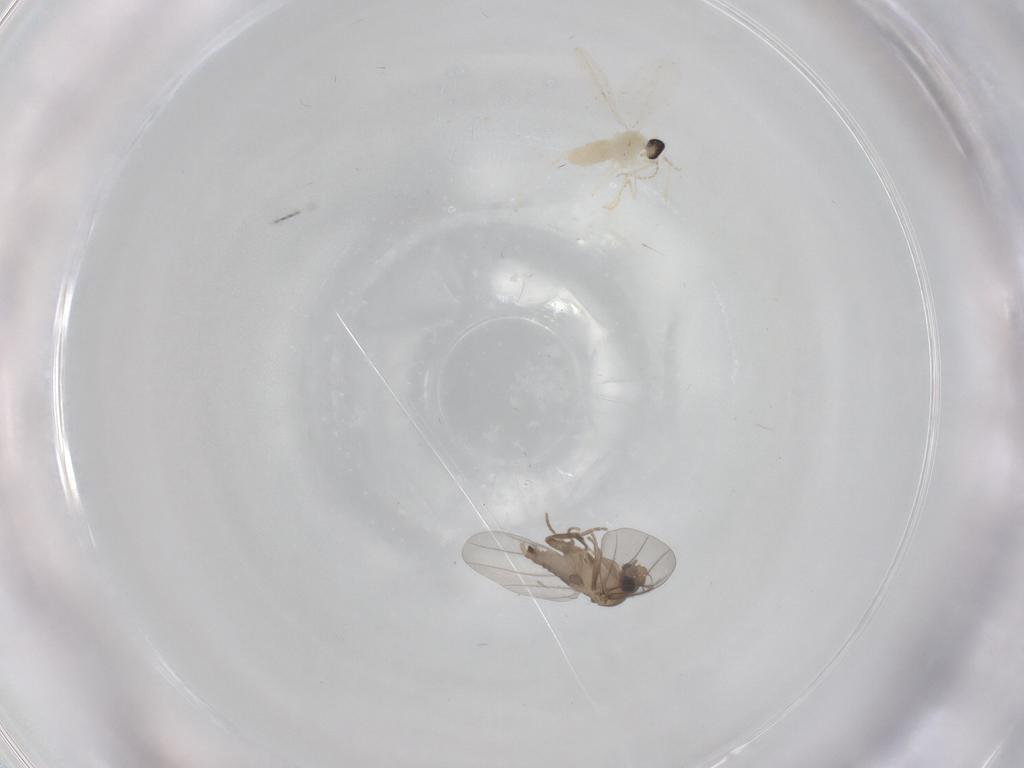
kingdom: Animalia
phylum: Arthropoda
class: Insecta
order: Diptera
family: Cecidomyiidae
